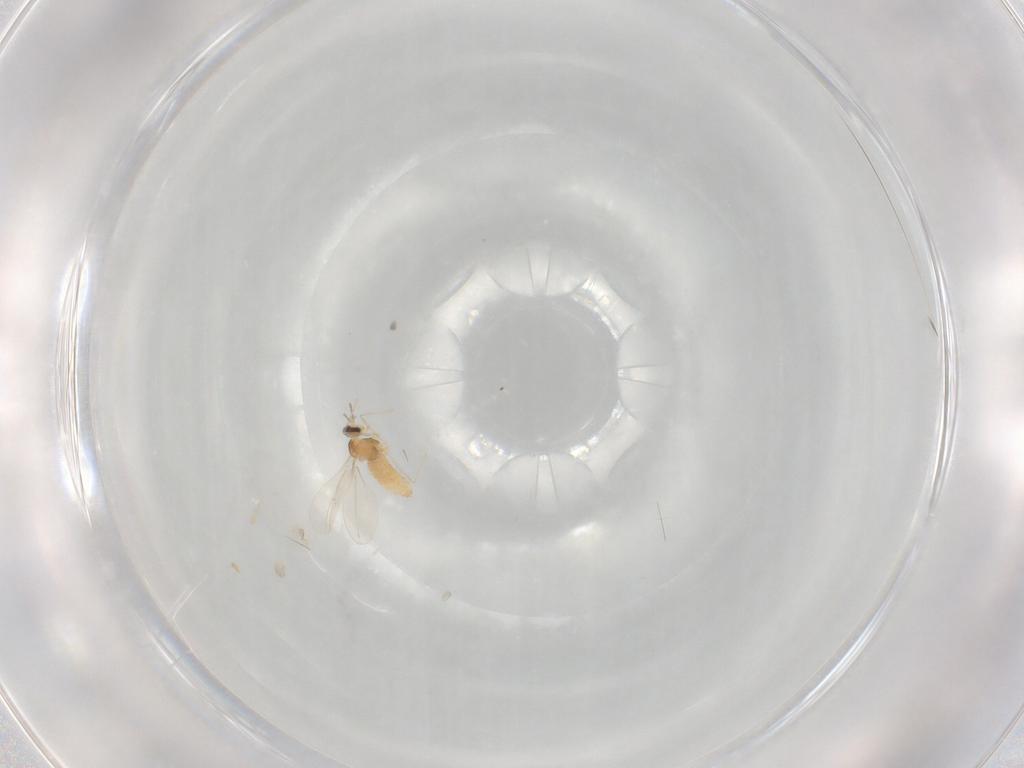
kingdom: Animalia
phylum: Arthropoda
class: Insecta
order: Diptera
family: Cecidomyiidae
